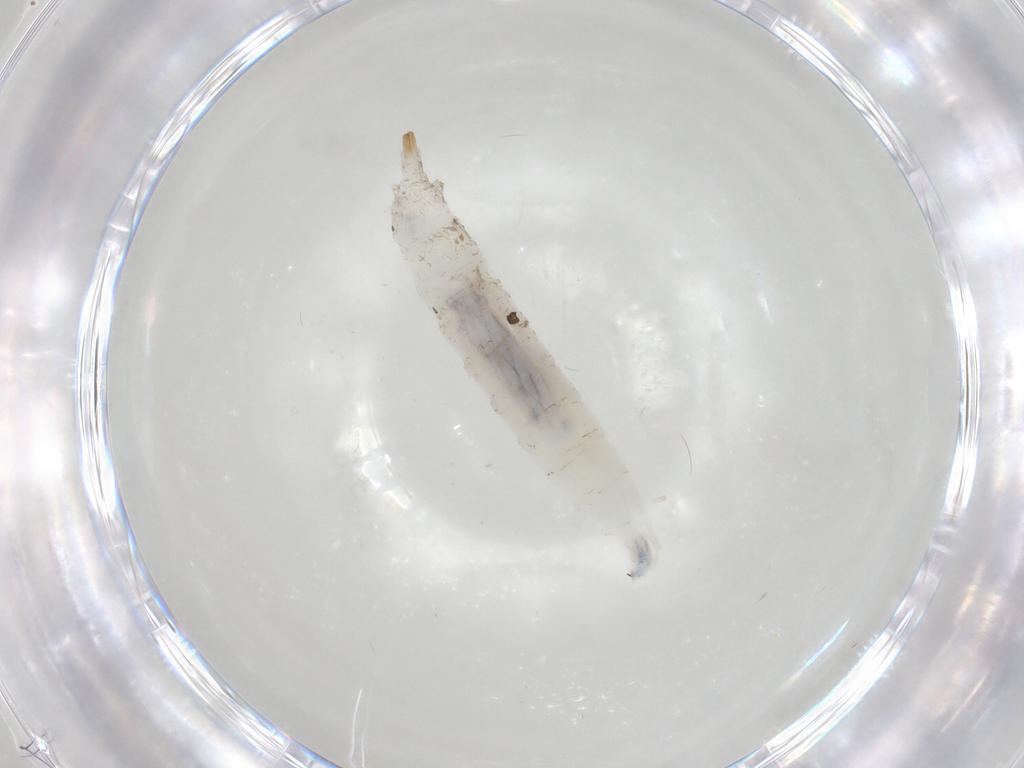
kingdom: Animalia
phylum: Arthropoda
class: Insecta
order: Diptera
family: Drosophilidae
